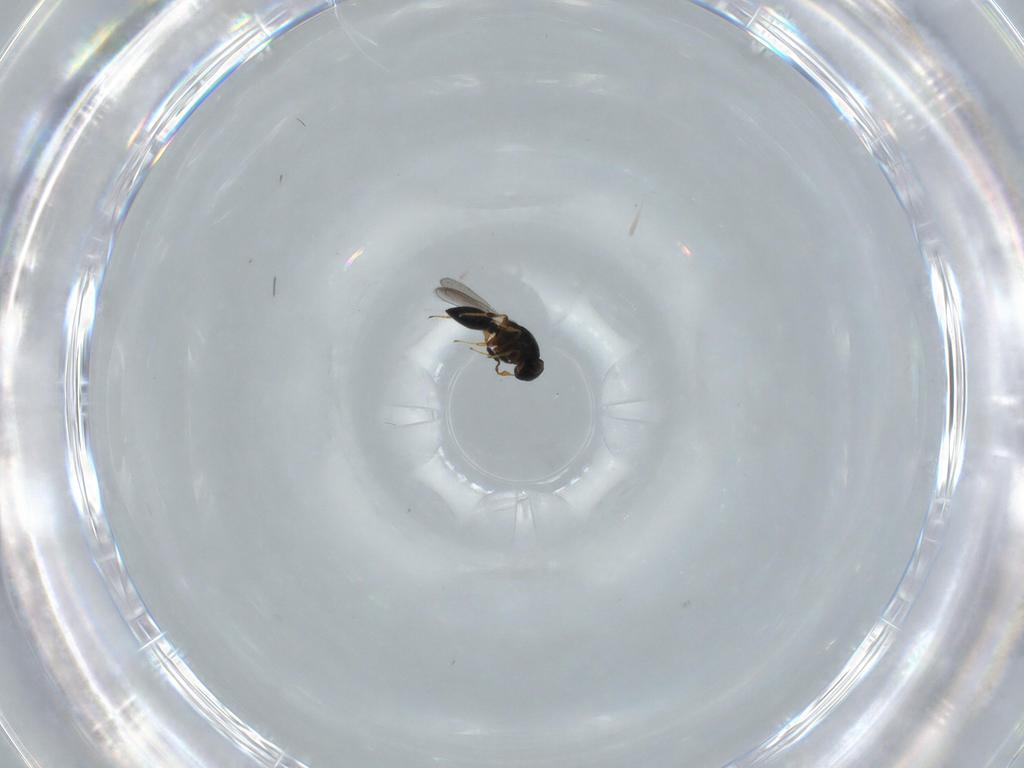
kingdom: Animalia
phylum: Arthropoda
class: Insecta
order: Hymenoptera
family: Platygastridae
